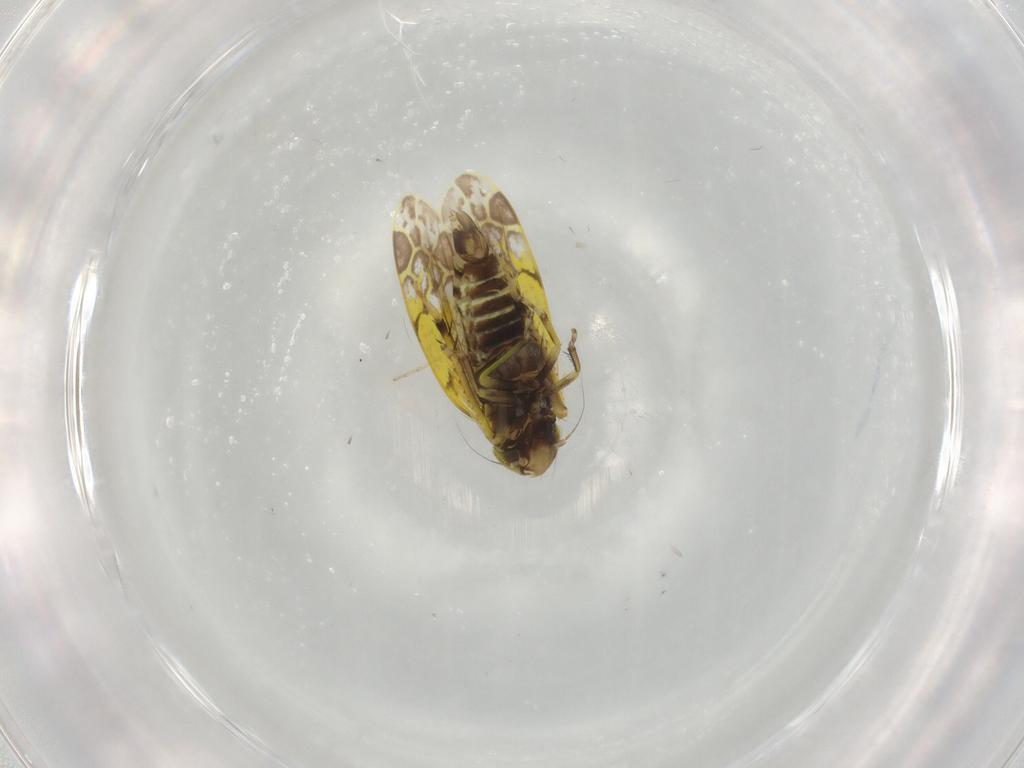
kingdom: Animalia
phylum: Arthropoda
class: Insecta
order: Hemiptera
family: Cicadellidae
